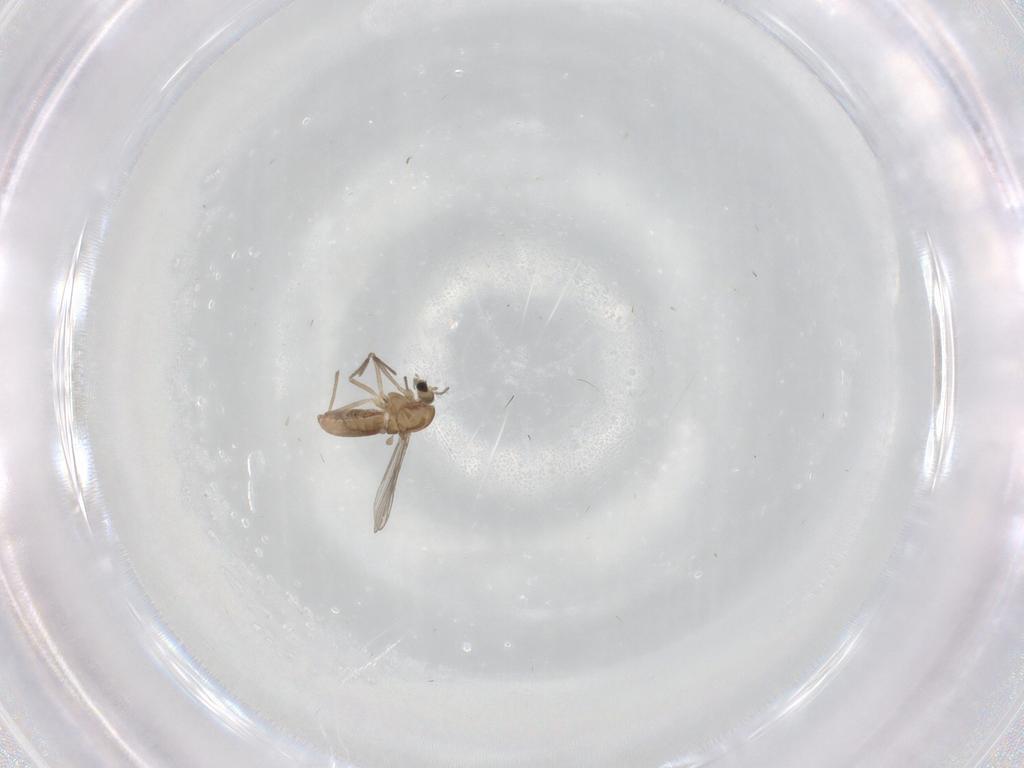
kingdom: Animalia
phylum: Arthropoda
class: Insecta
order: Diptera
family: Chironomidae
